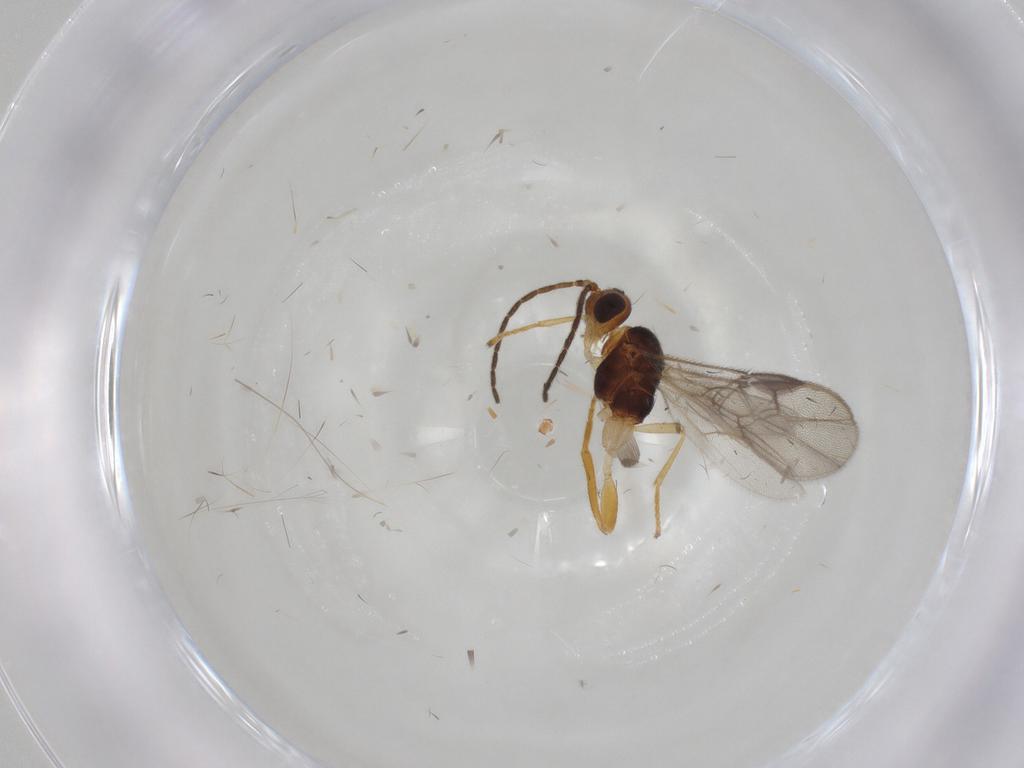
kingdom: Animalia
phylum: Arthropoda
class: Insecta
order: Hymenoptera
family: Braconidae
